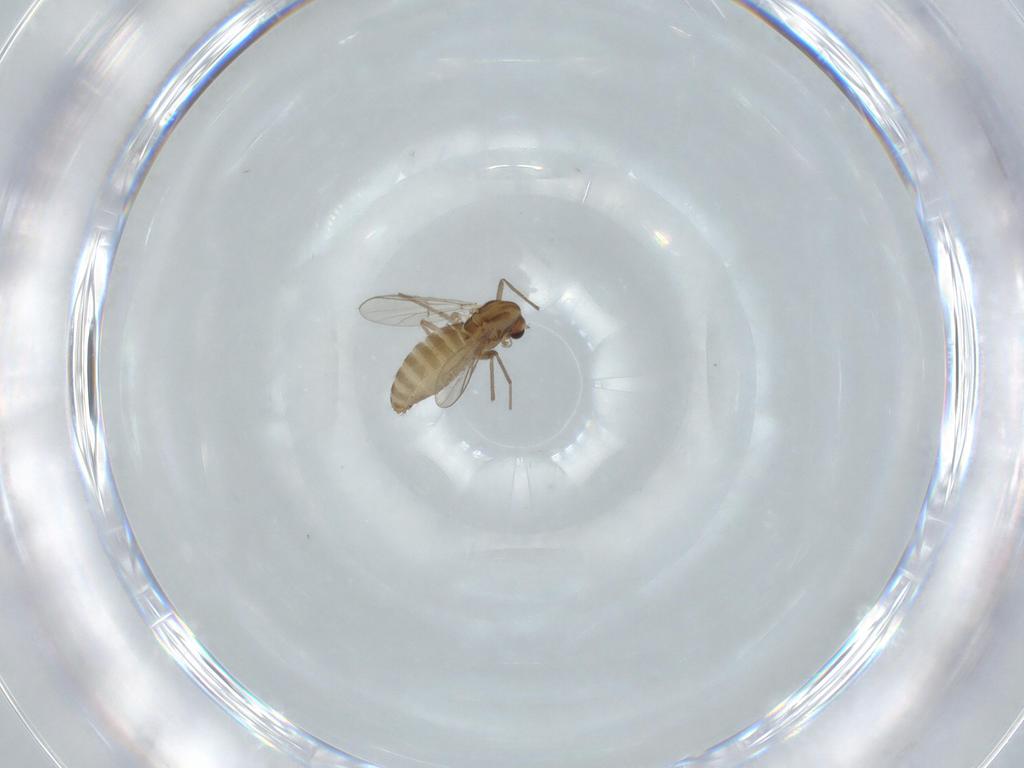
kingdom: Animalia
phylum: Arthropoda
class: Insecta
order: Diptera
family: Chironomidae
